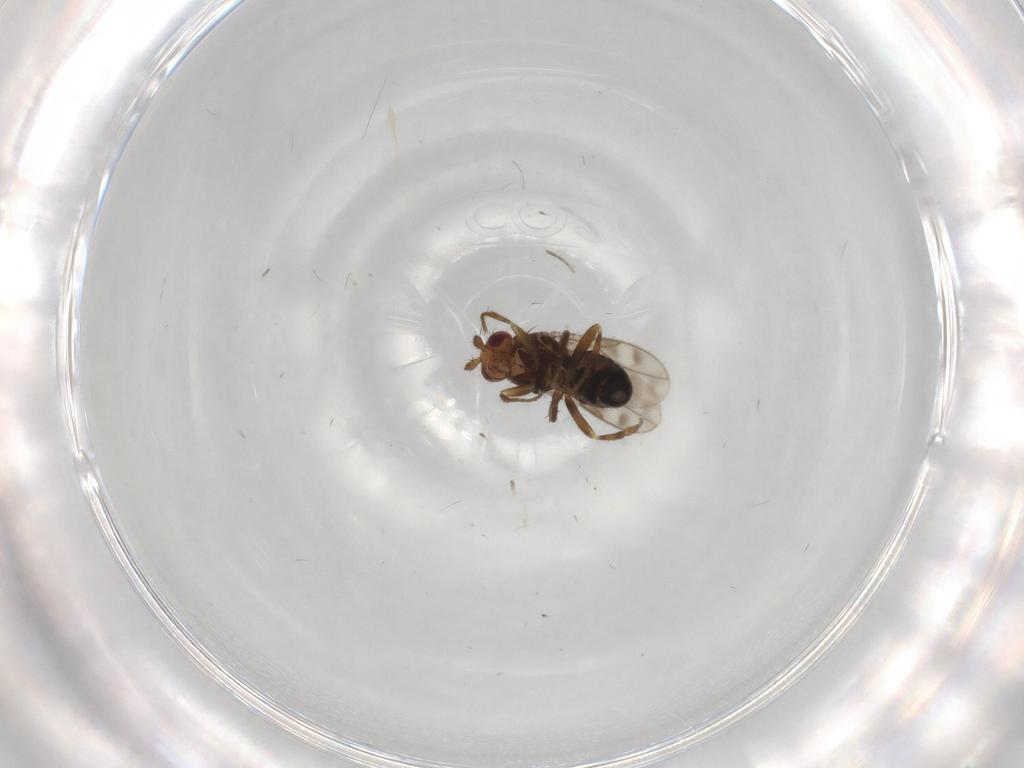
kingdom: Animalia
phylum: Arthropoda
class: Insecta
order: Diptera
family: Sphaeroceridae
